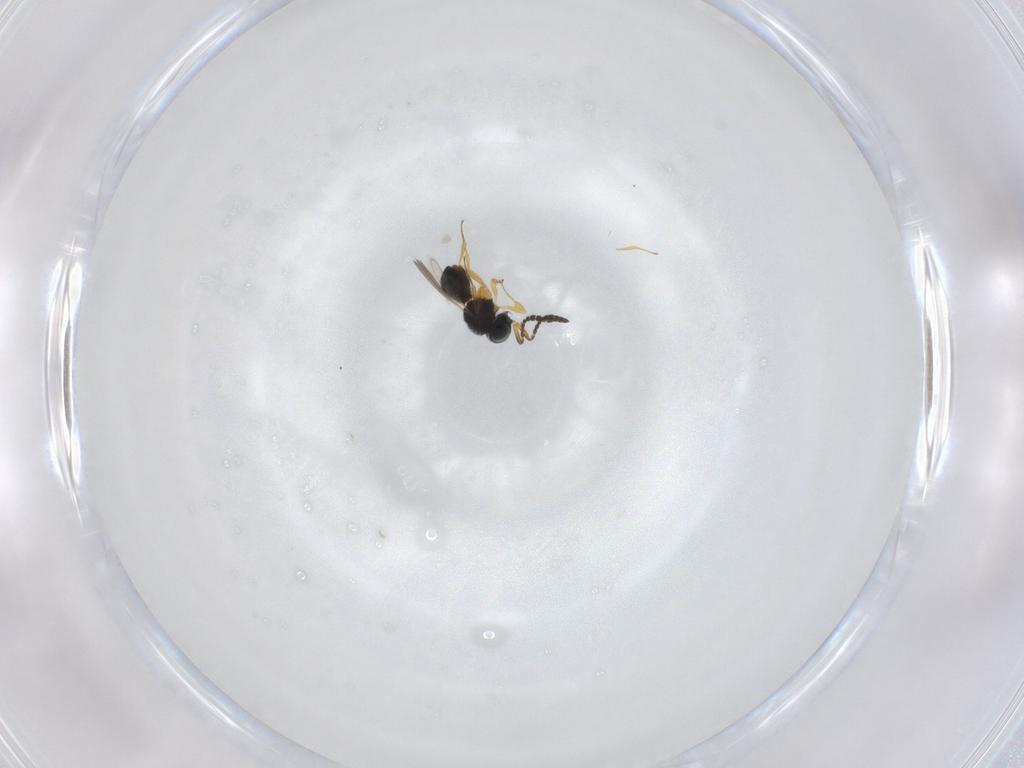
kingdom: Animalia
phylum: Arthropoda
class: Insecta
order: Hymenoptera
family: Scelionidae
